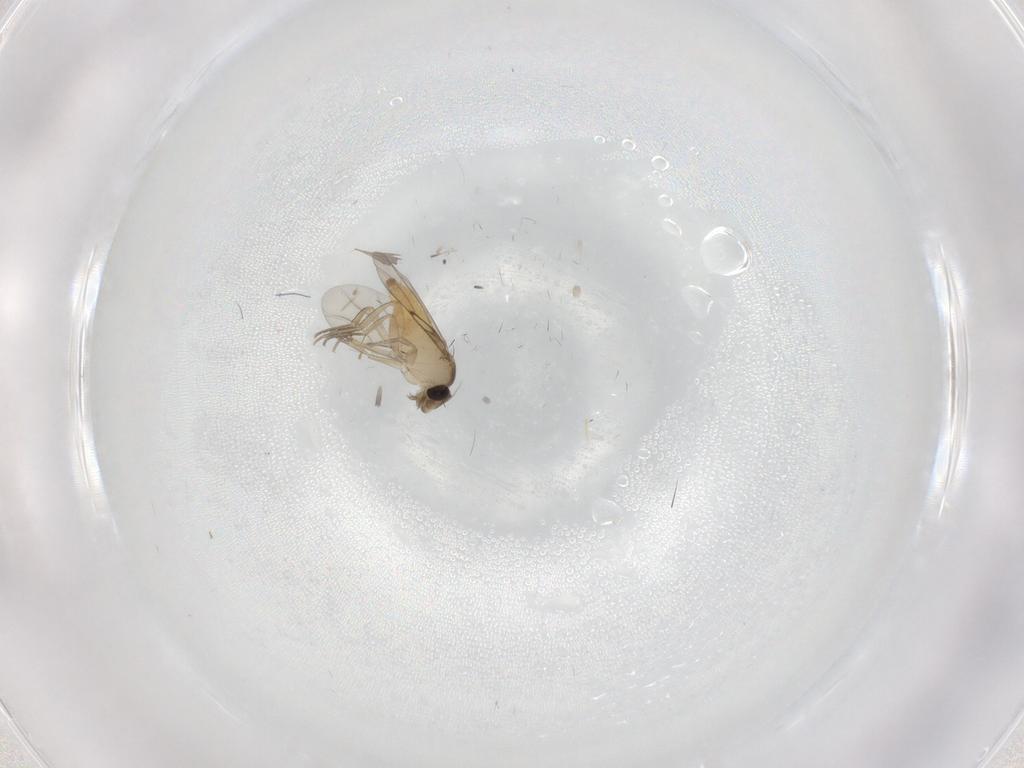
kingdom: Animalia
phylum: Arthropoda
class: Insecta
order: Diptera
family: Phoridae
